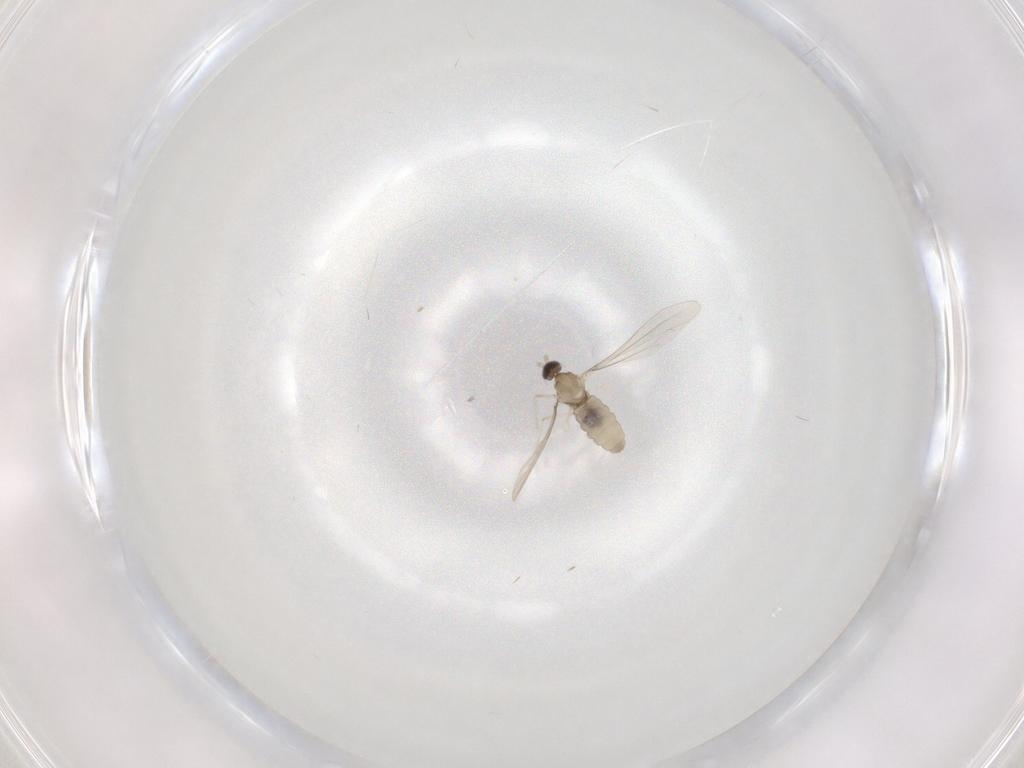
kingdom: Animalia
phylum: Arthropoda
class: Insecta
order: Diptera
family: Cecidomyiidae
